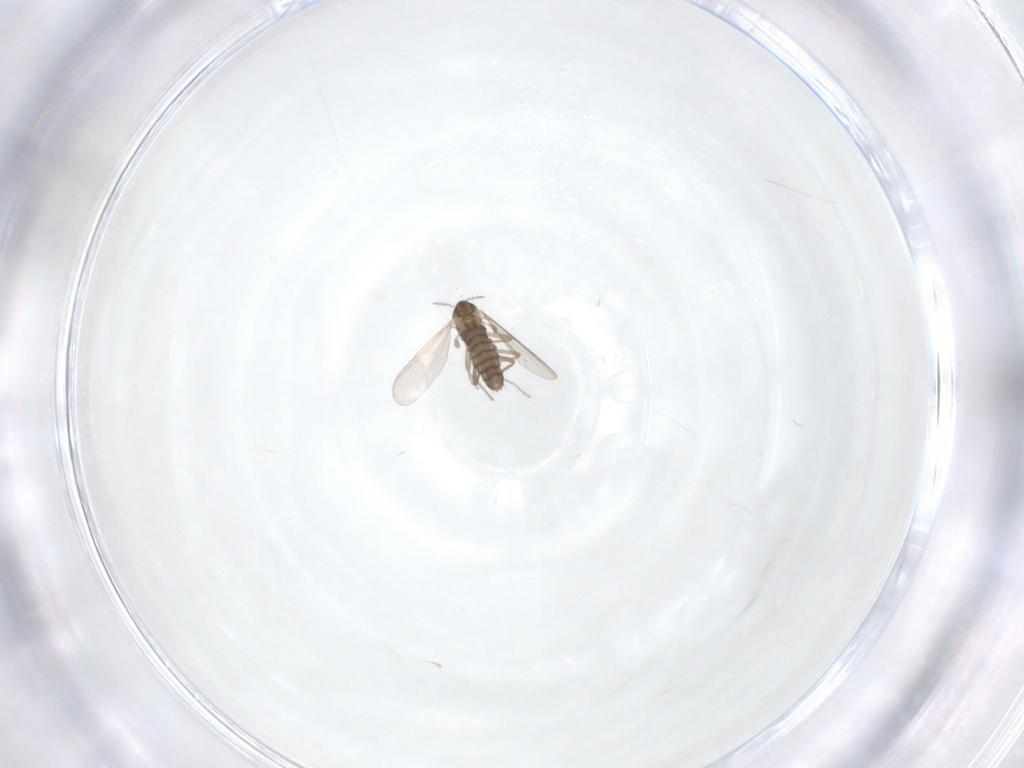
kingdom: Animalia
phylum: Arthropoda
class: Insecta
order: Diptera
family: Chironomidae
